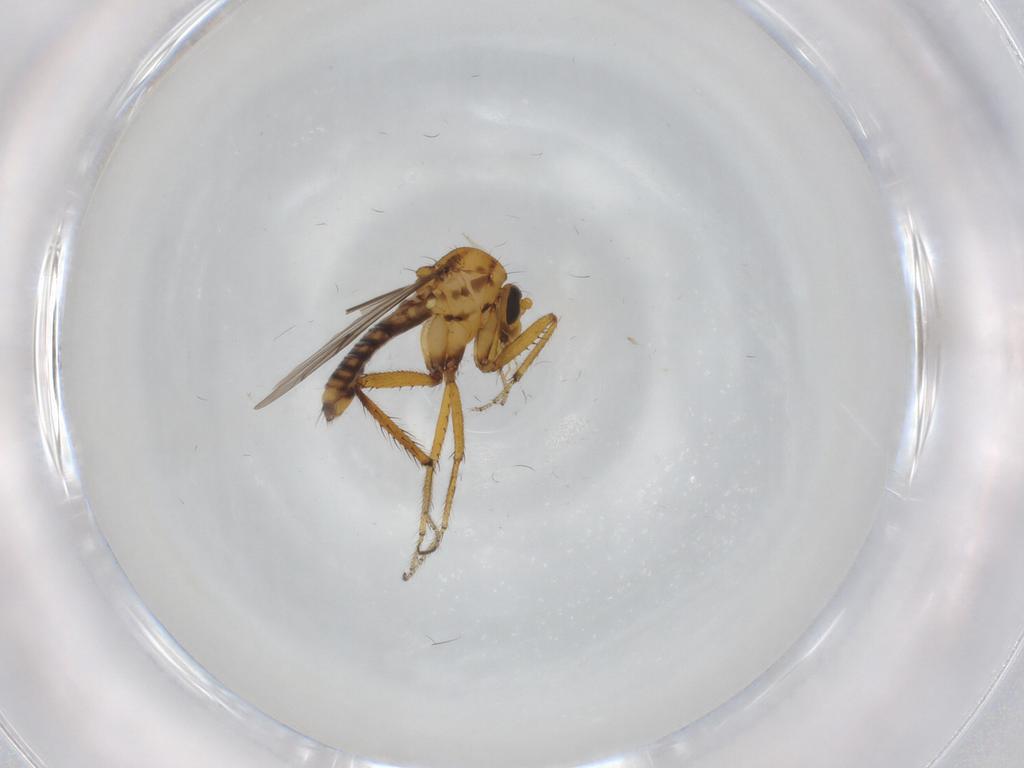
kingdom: Animalia
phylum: Arthropoda
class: Insecta
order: Diptera
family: Ceratopogonidae
